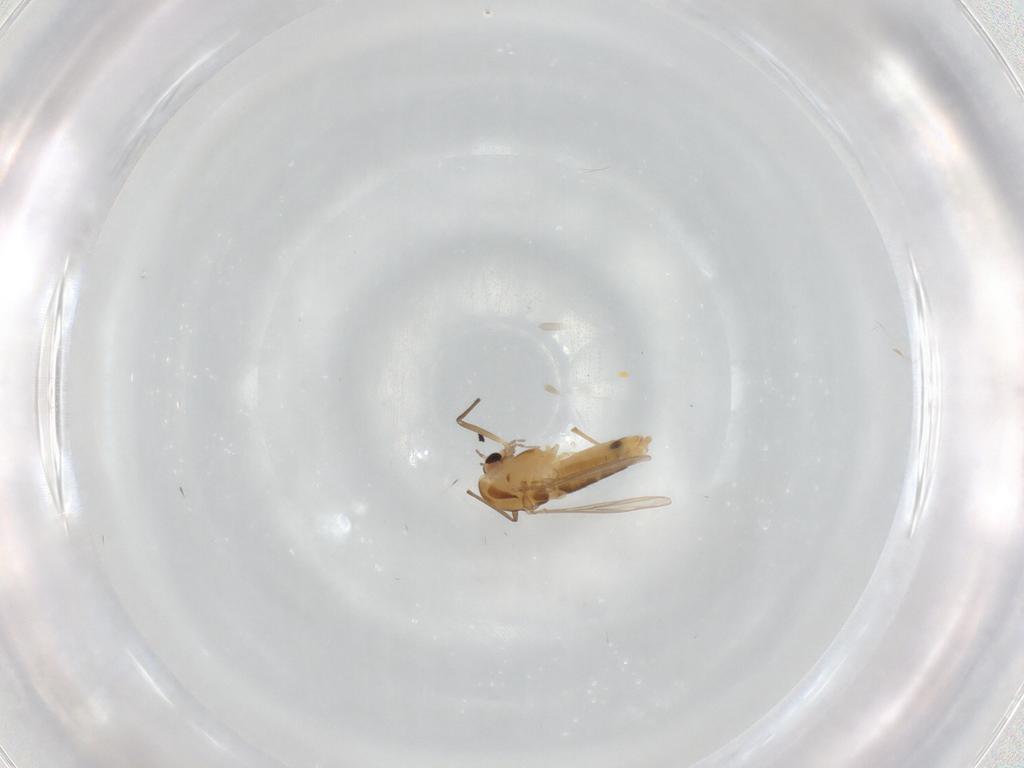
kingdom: Animalia
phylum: Arthropoda
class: Insecta
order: Diptera
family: Chironomidae
